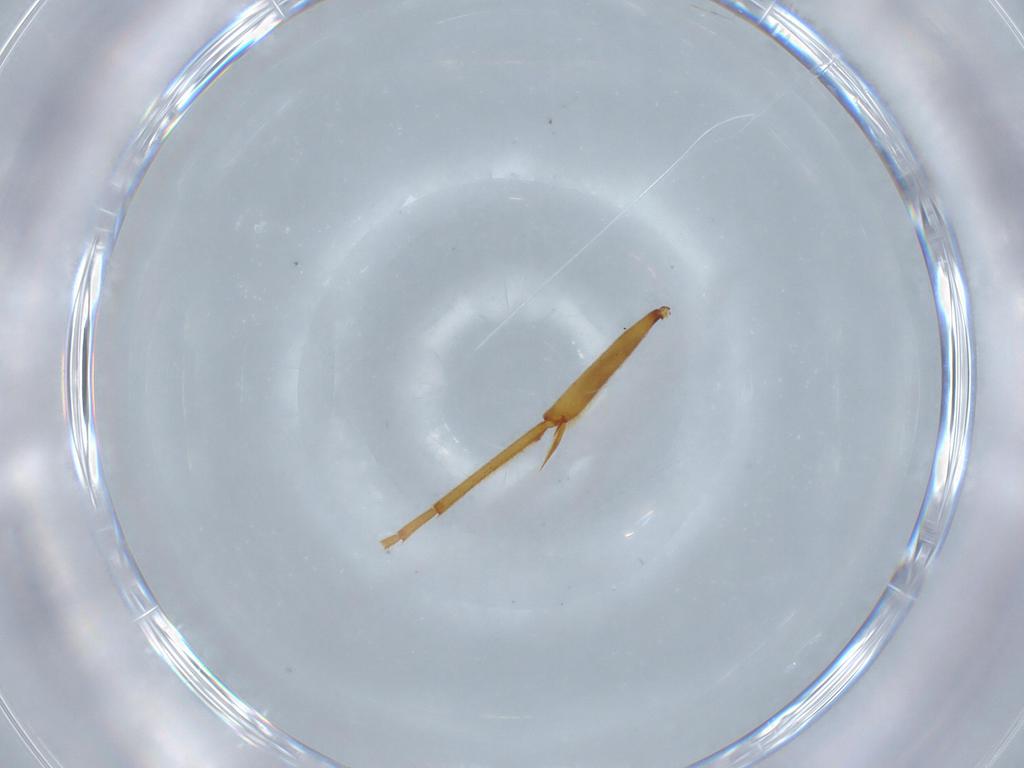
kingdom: Animalia
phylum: Arthropoda
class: Insecta
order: Hymenoptera
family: Formicidae
